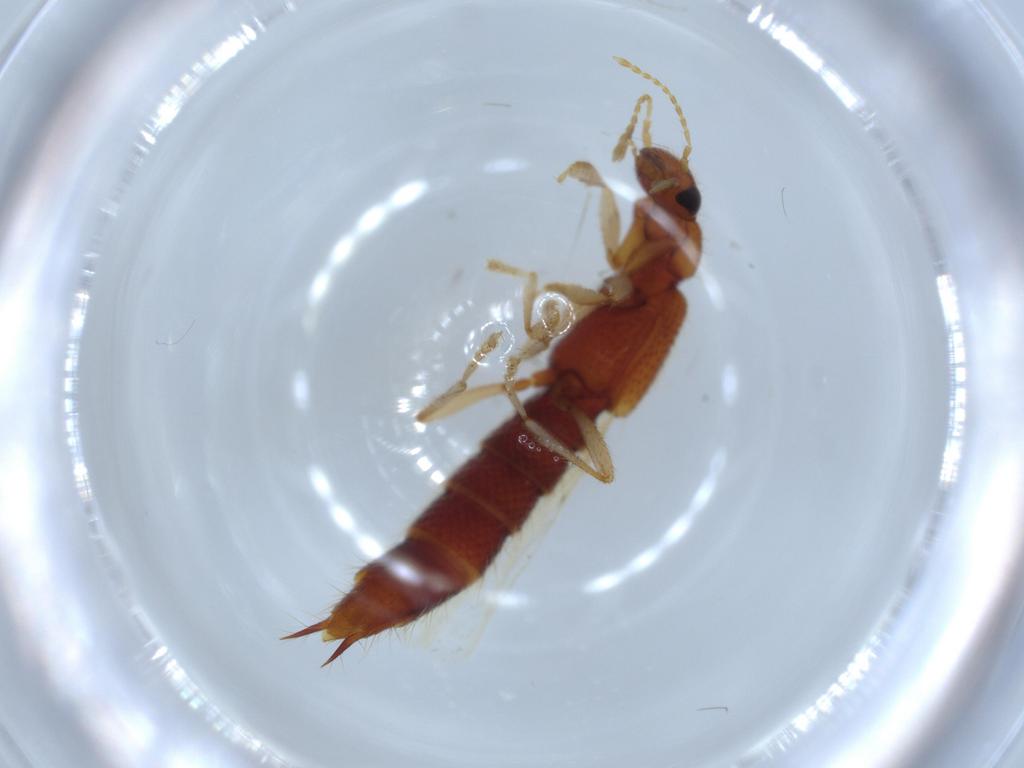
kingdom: Animalia
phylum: Arthropoda
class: Insecta
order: Coleoptera
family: Staphylinidae
